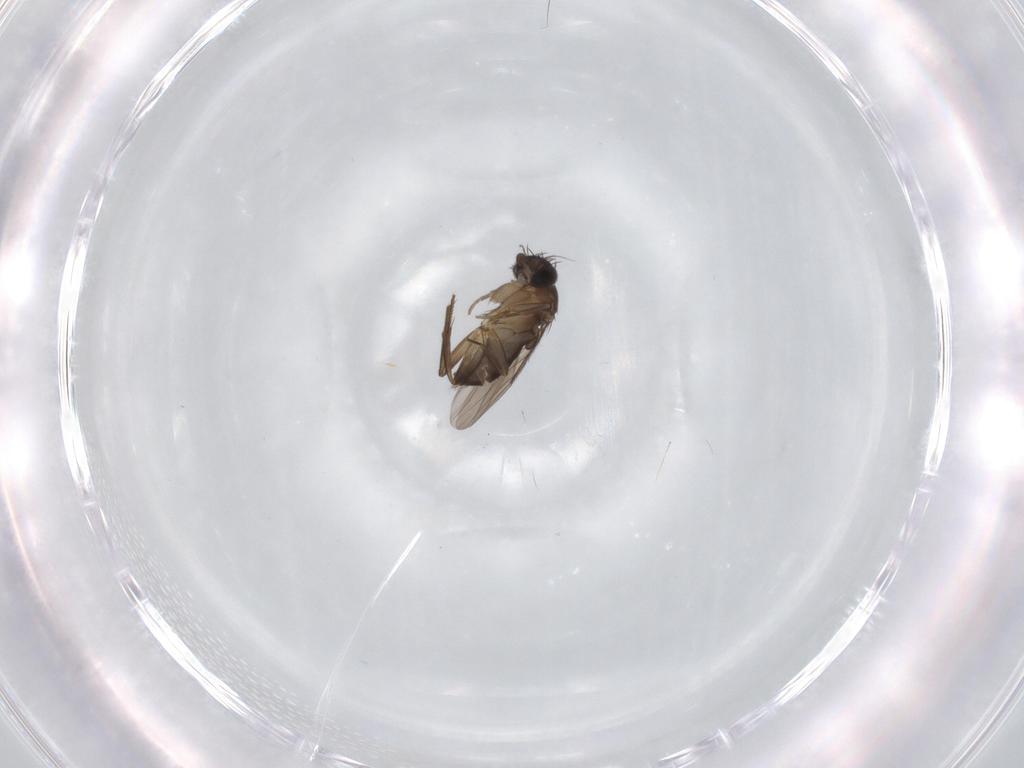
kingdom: Animalia
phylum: Arthropoda
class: Insecta
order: Diptera
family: Phoridae
